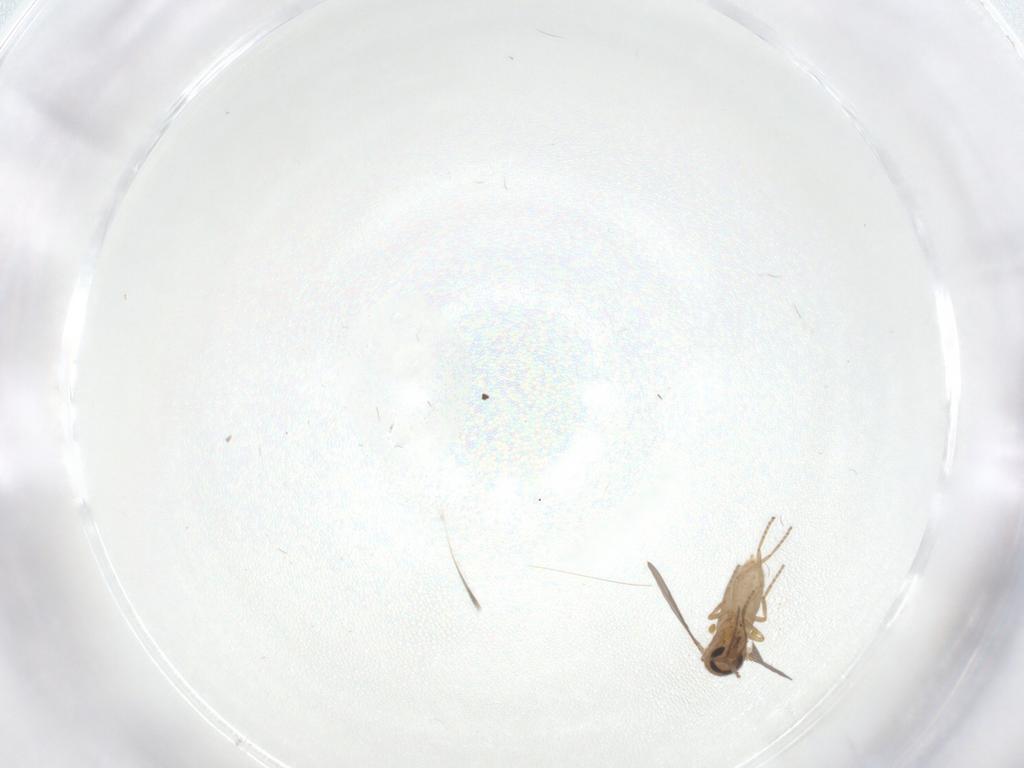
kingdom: Animalia
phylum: Arthropoda
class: Insecta
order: Diptera
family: Ceratopogonidae
